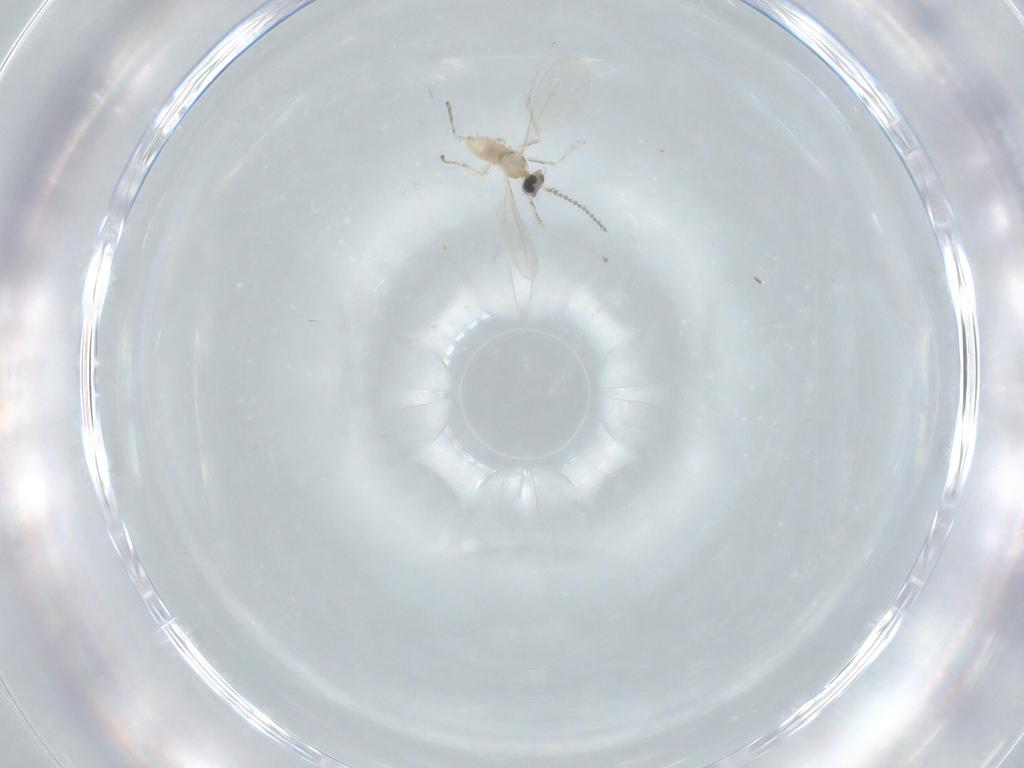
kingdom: Animalia
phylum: Arthropoda
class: Insecta
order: Diptera
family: Cecidomyiidae
